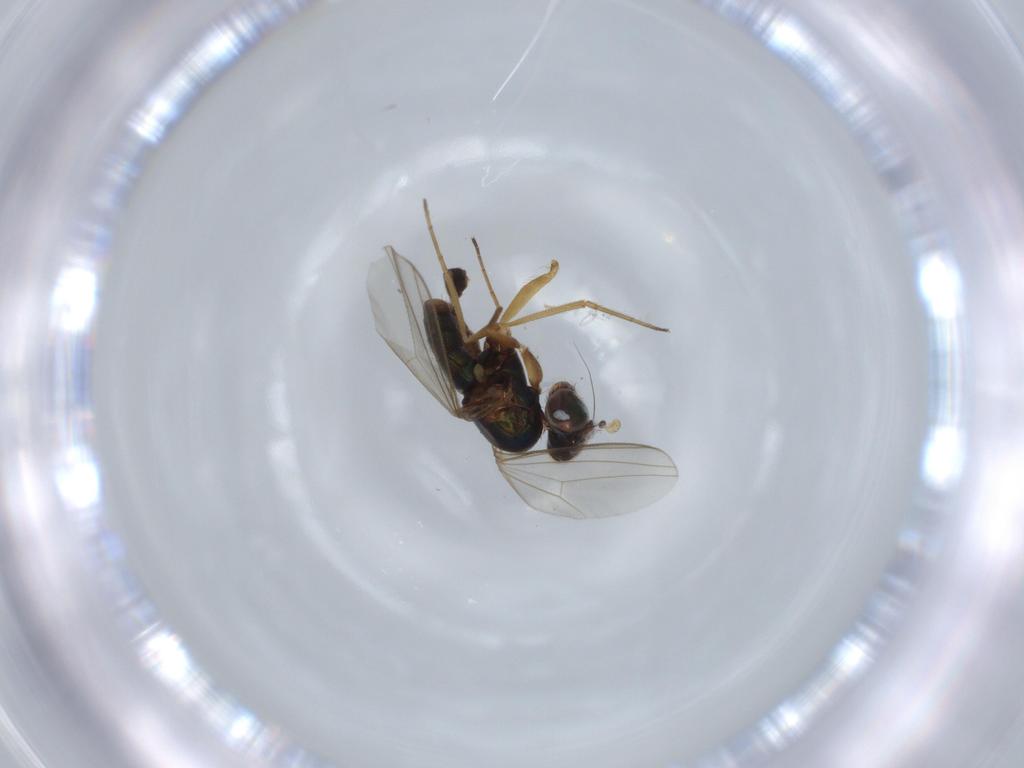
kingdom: Animalia
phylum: Arthropoda
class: Insecta
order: Diptera
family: Dolichopodidae
